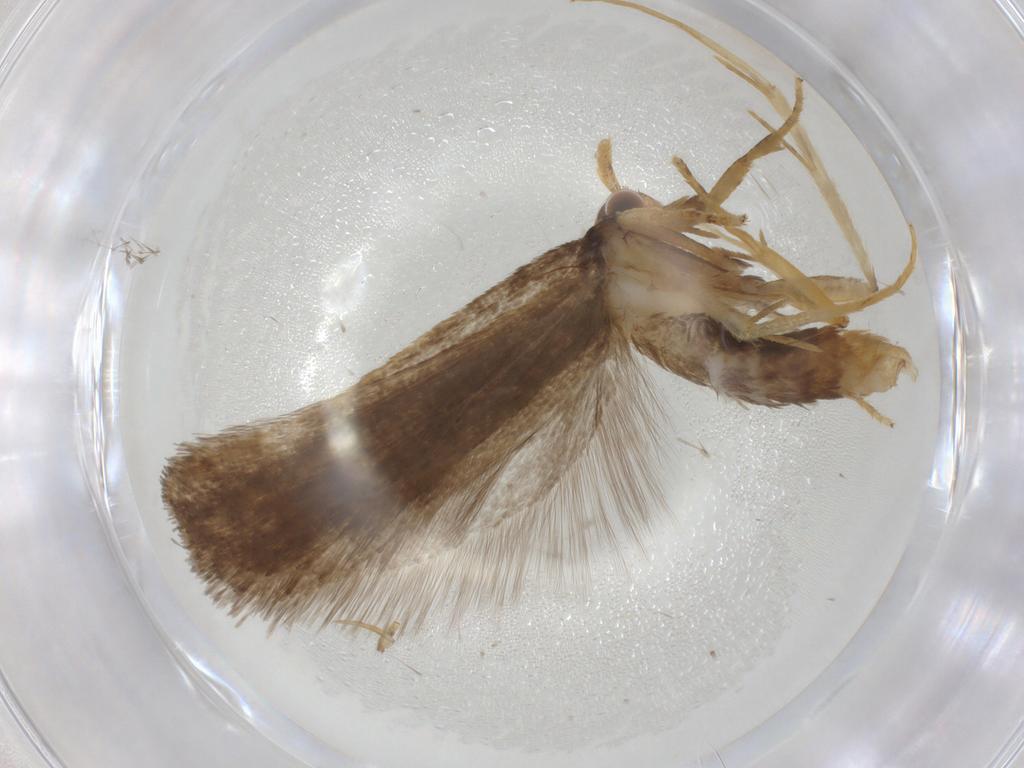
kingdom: Animalia
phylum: Arthropoda
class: Insecta
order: Lepidoptera
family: Lecithoceridae
